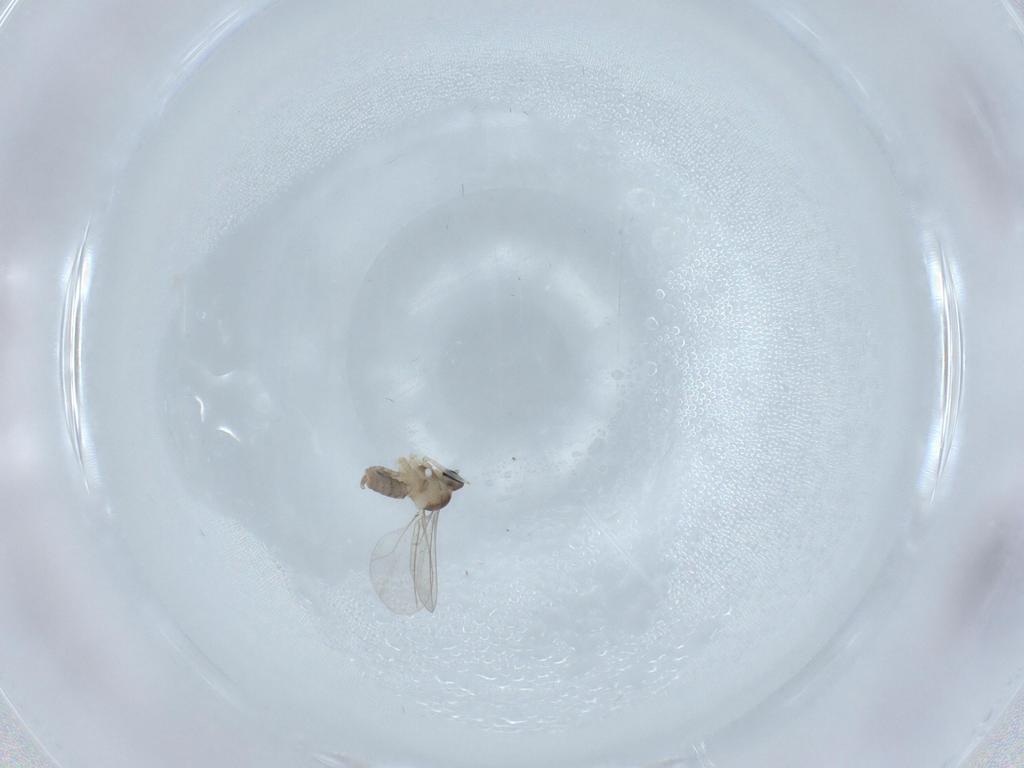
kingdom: Animalia
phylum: Arthropoda
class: Insecta
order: Diptera
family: Cecidomyiidae
